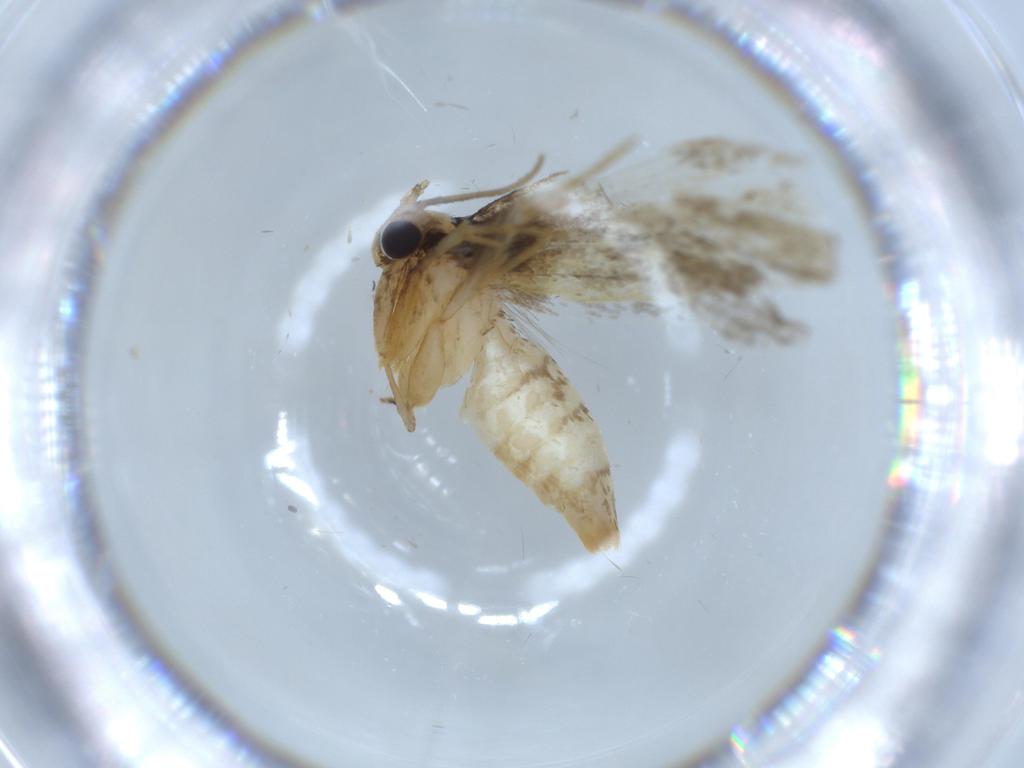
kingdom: Animalia
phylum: Arthropoda
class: Insecta
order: Lepidoptera
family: Tineidae
